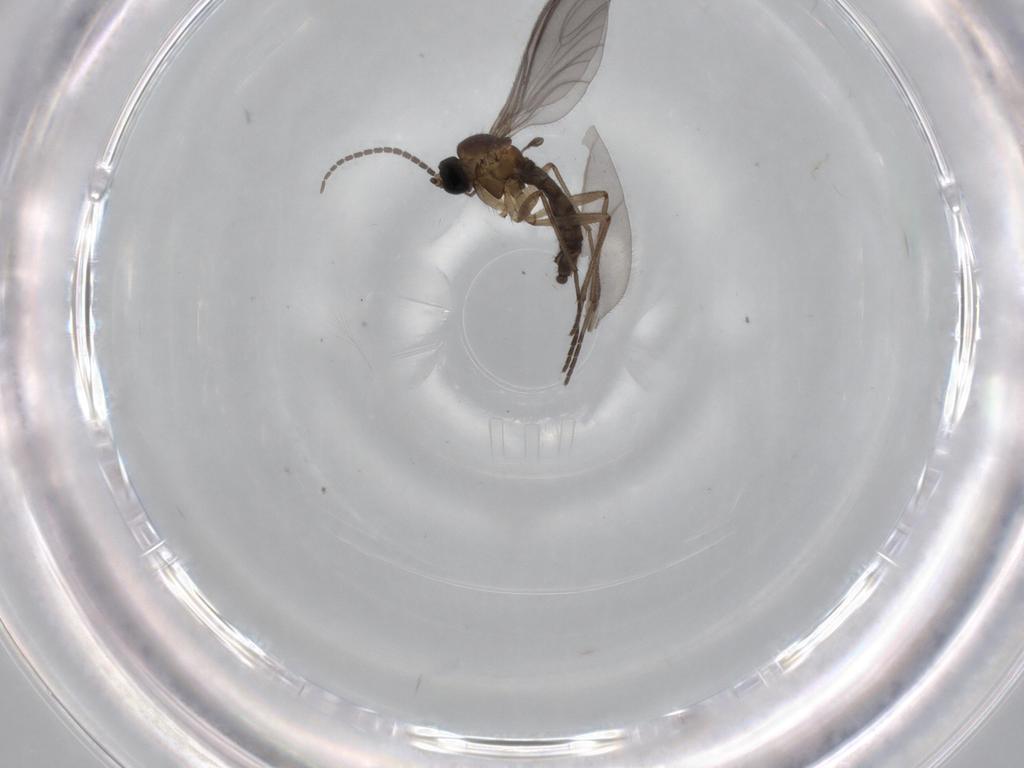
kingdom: Animalia
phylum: Arthropoda
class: Insecta
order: Diptera
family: Sciaridae
